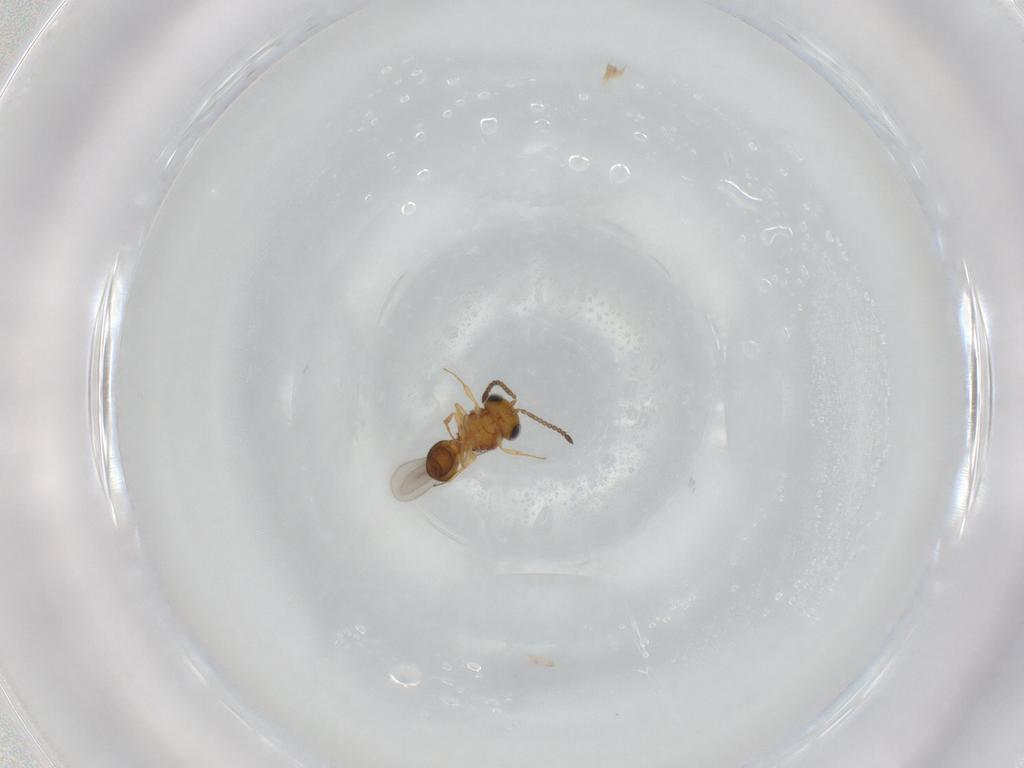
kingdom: Animalia
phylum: Arthropoda
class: Insecta
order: Hymenoptera
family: Scelionidae
